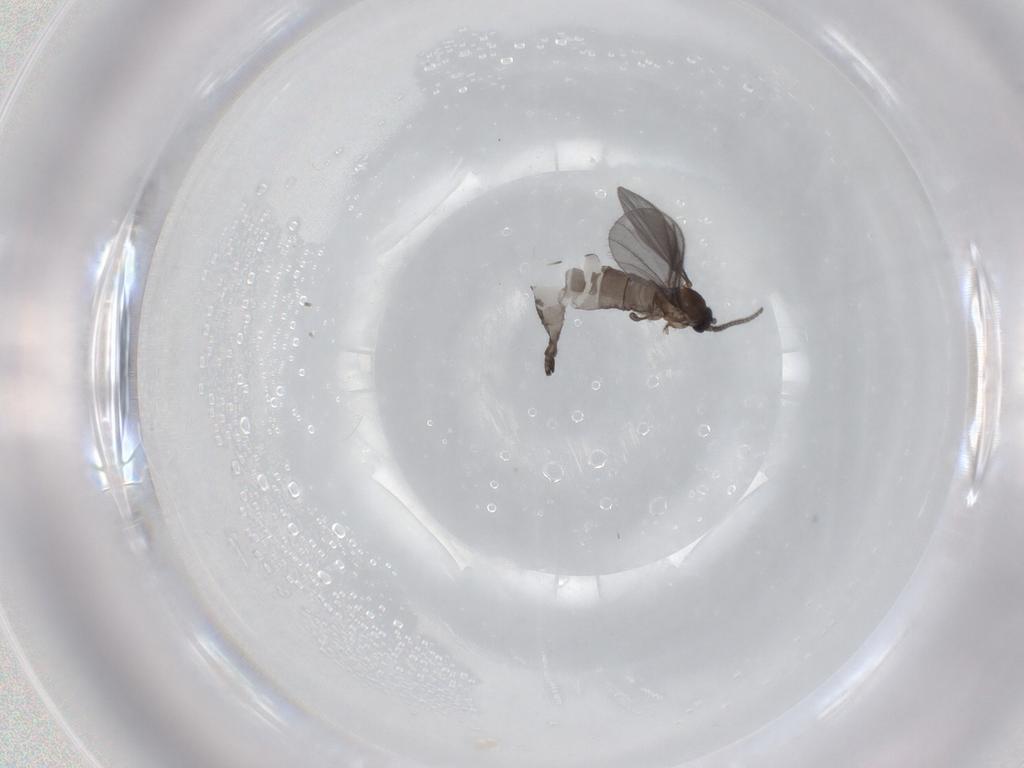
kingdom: Animalia
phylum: Arthropoda
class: Insecta
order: Diptera
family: Sciaridae
